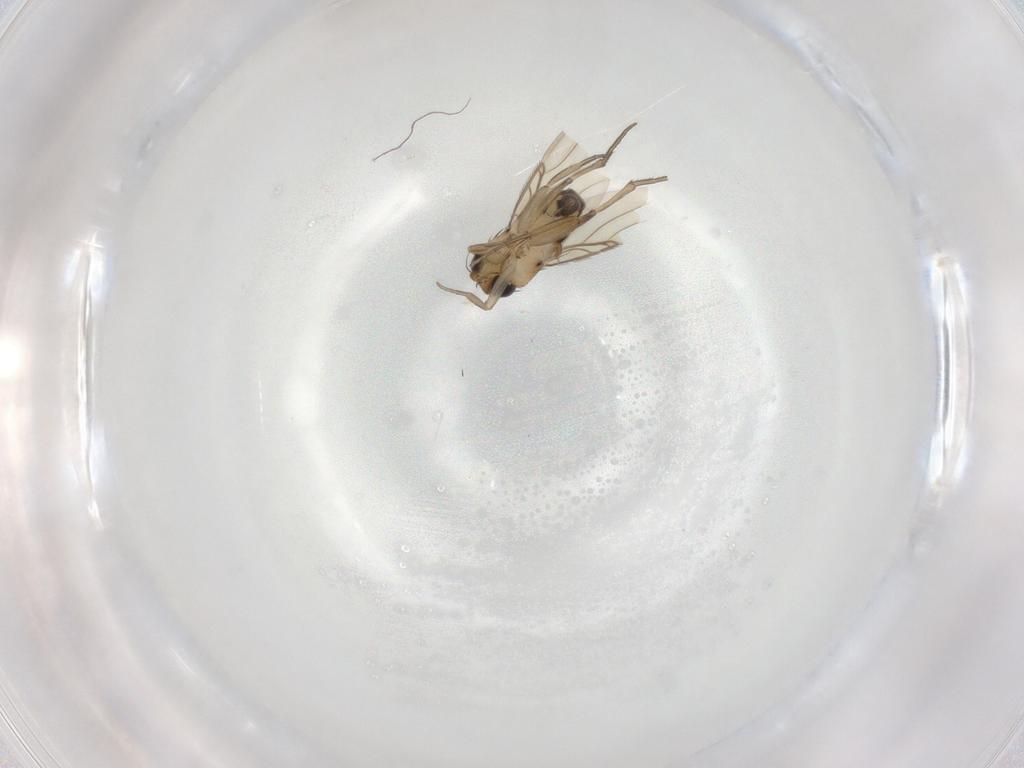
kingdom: Animalia
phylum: Arthropoda
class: Insecta
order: Diptera
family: Phoridae
